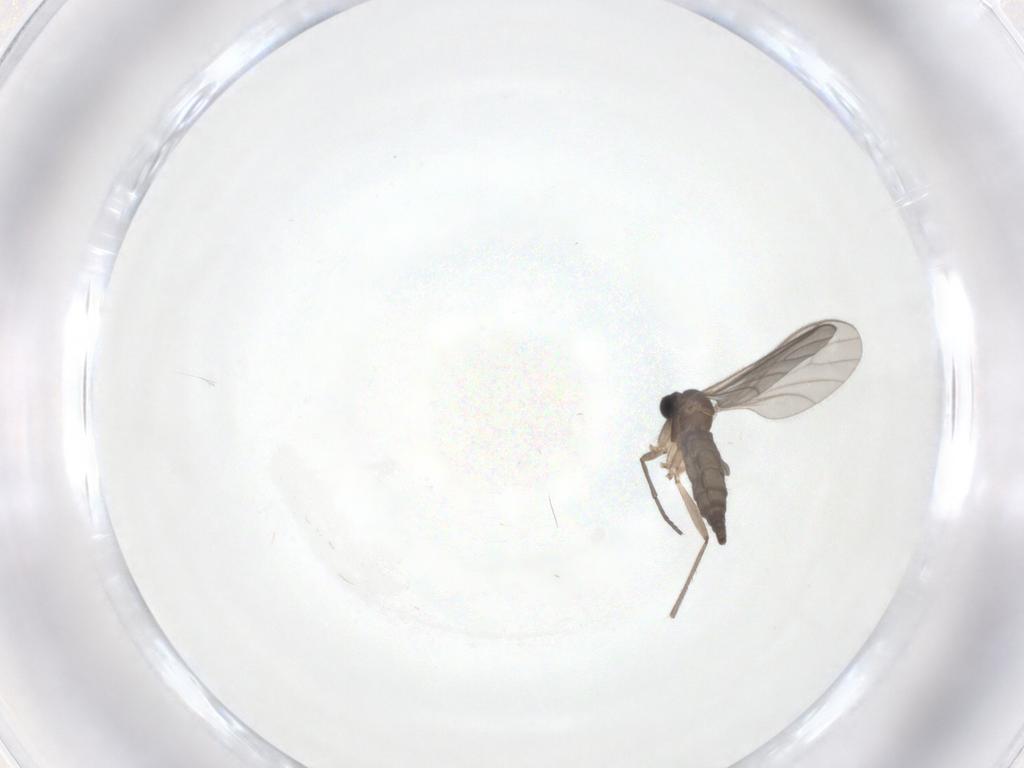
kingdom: Animalia
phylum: Arthropoda
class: Insecta
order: Diptera
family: Sciaridae
